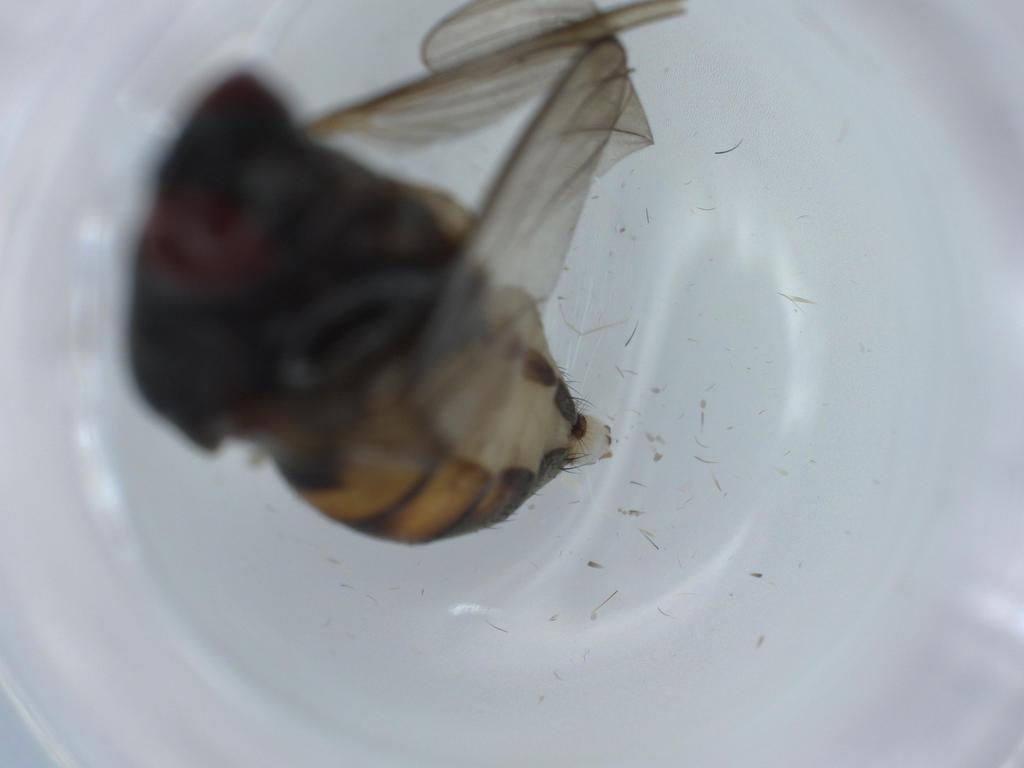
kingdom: Animalia
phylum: Arthropoda
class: Insecta
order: Diptera
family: Anthomyiidae
